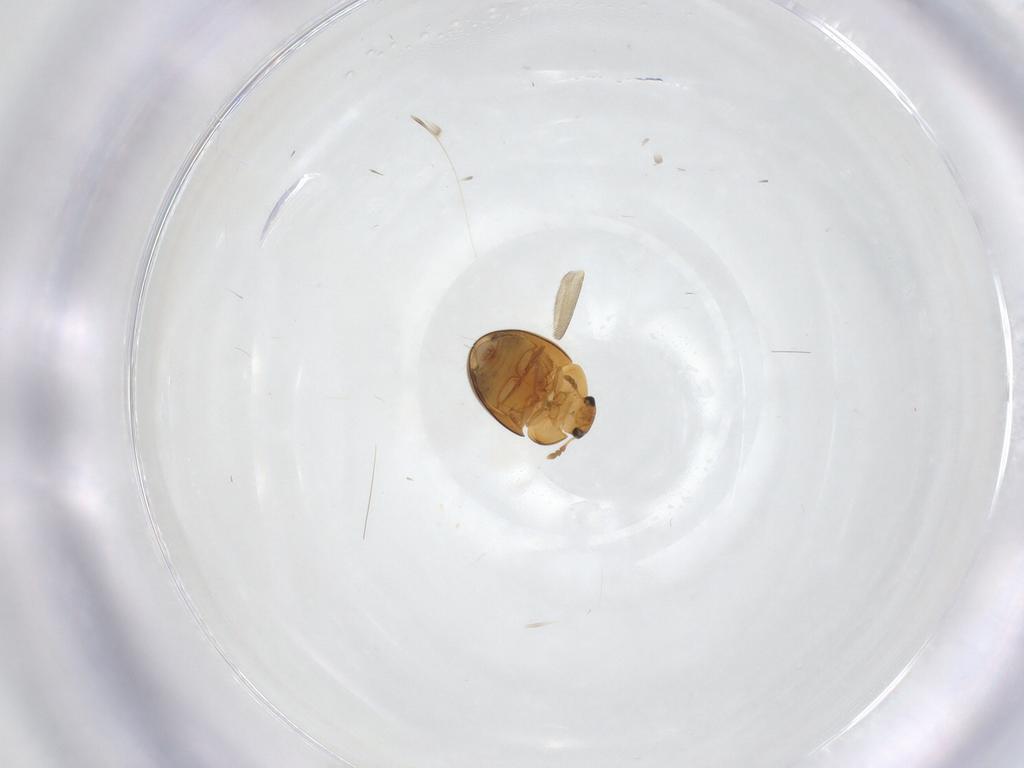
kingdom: Animalia
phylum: Arthropoda
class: Insecta
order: Coleoptera
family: Phalacridae
